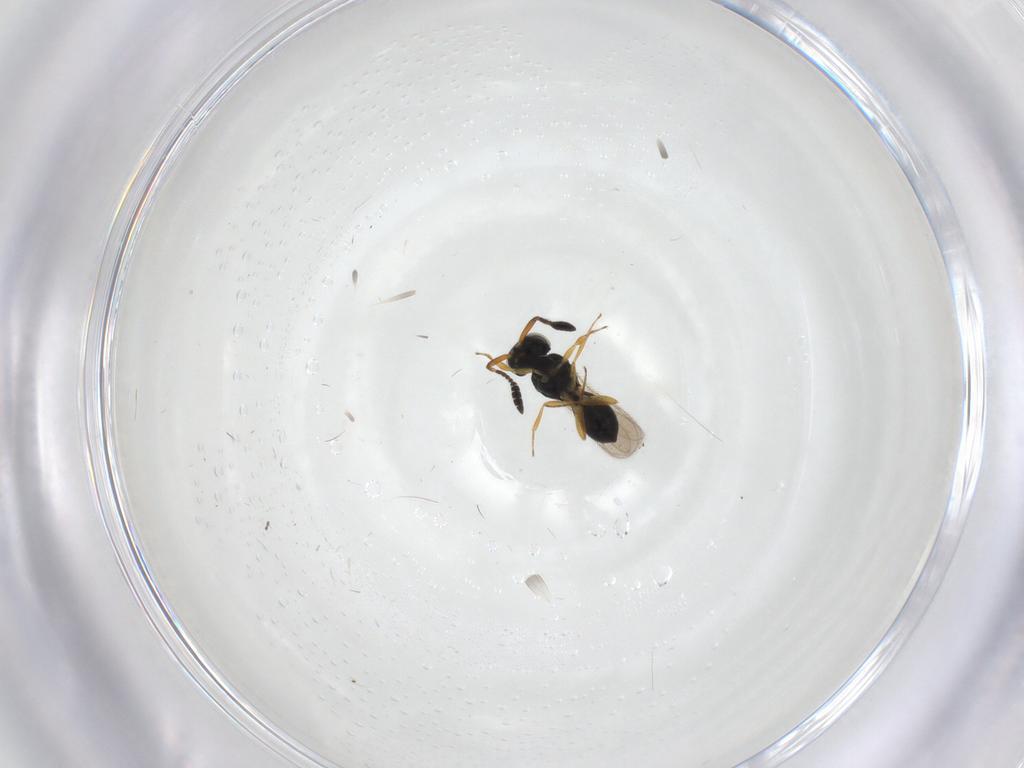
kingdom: Animalia
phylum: Arthropoda
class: Insecta
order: Hymenoptera
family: Scelionidae
